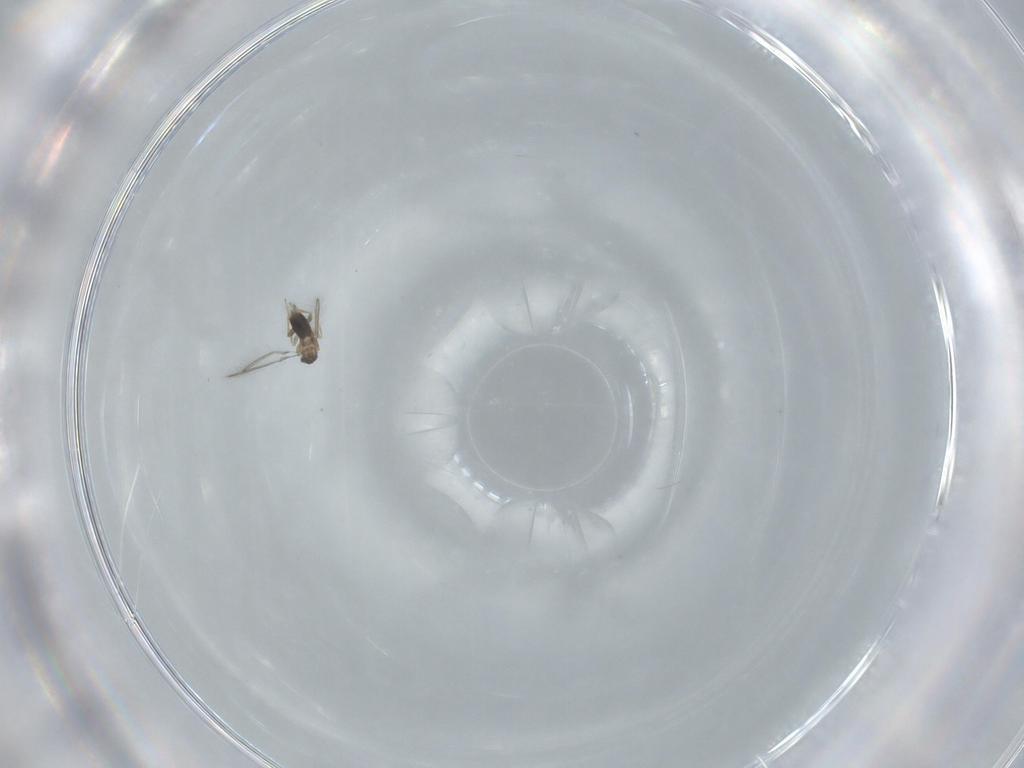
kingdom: Animalia
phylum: Arthropoda
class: Insecta
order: Hymenoptera
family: Mymaridae
